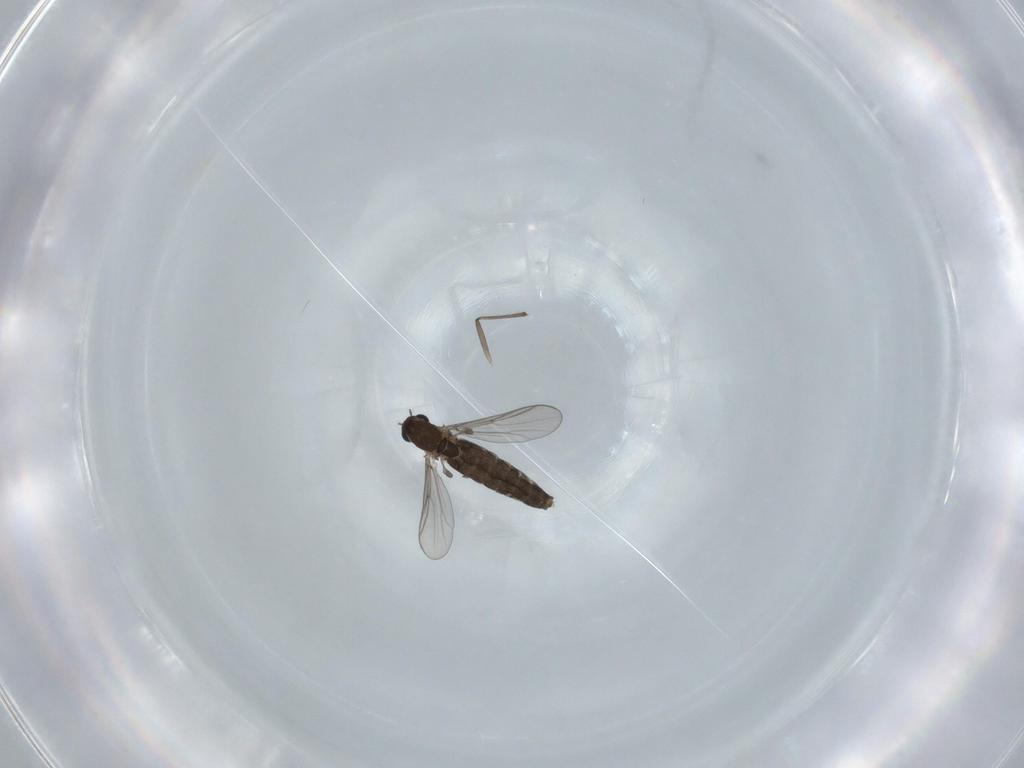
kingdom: Animalia
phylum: Arthropoda
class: Insecta
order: Diptera
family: Chironomidae
